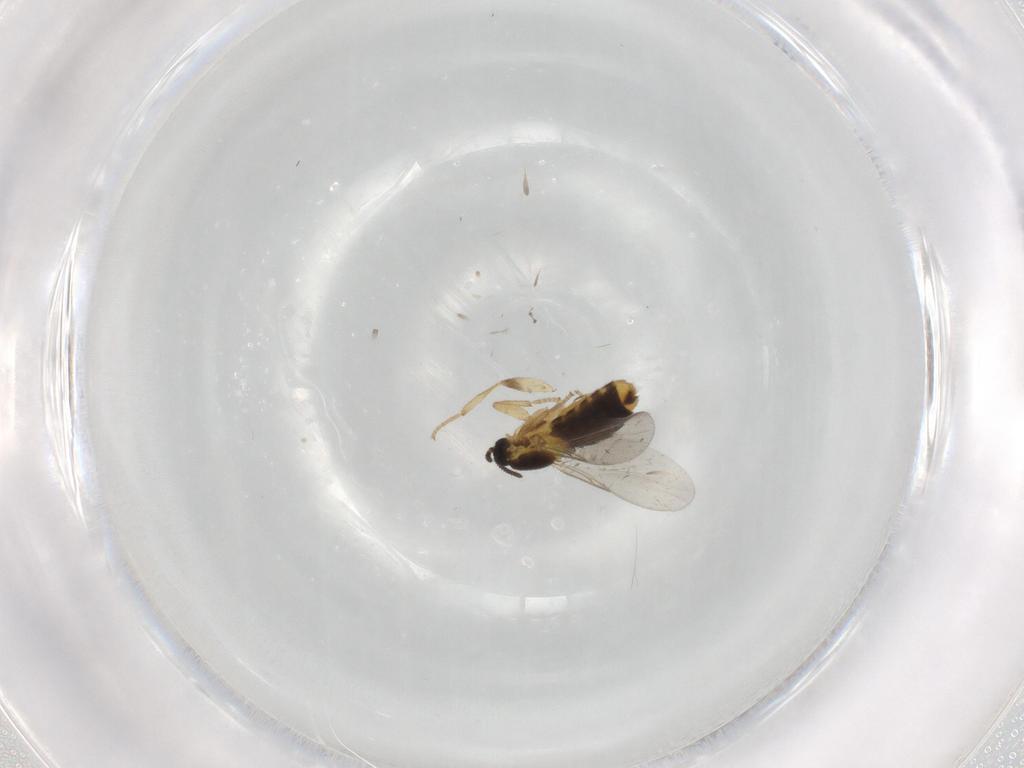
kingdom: Animalia
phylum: Arthropoda
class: Insecta
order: Diptera
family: Scatopsidae
